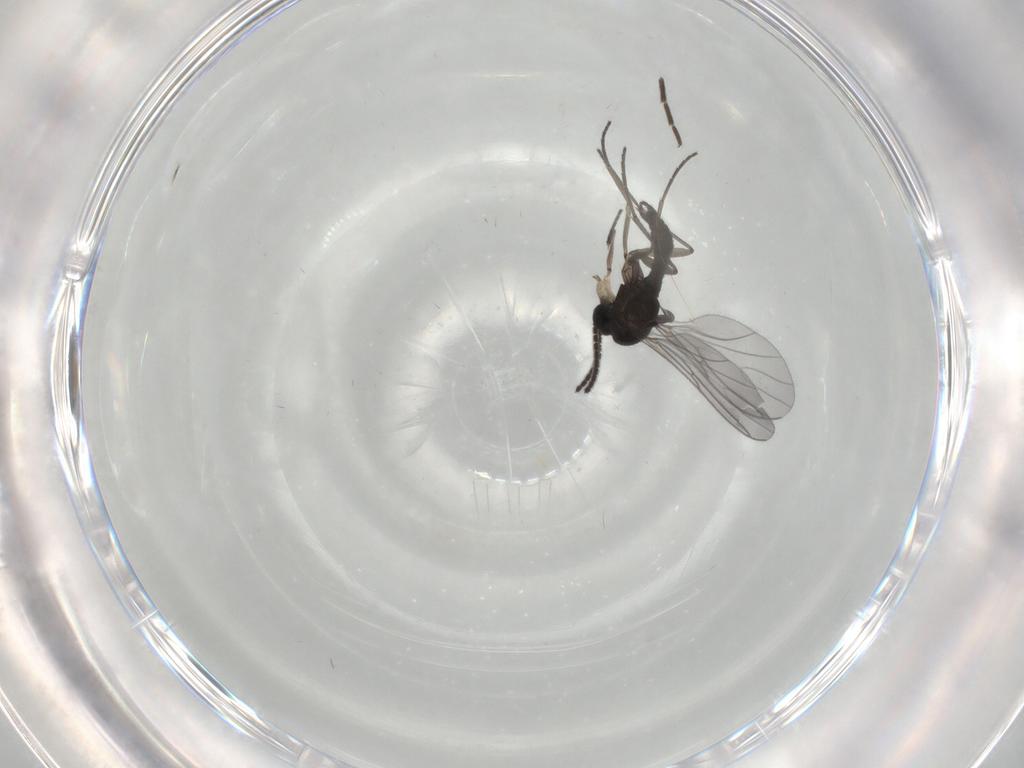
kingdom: Animalia
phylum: Arthropoda
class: Insecta
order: Diptera
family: Sciaridae
